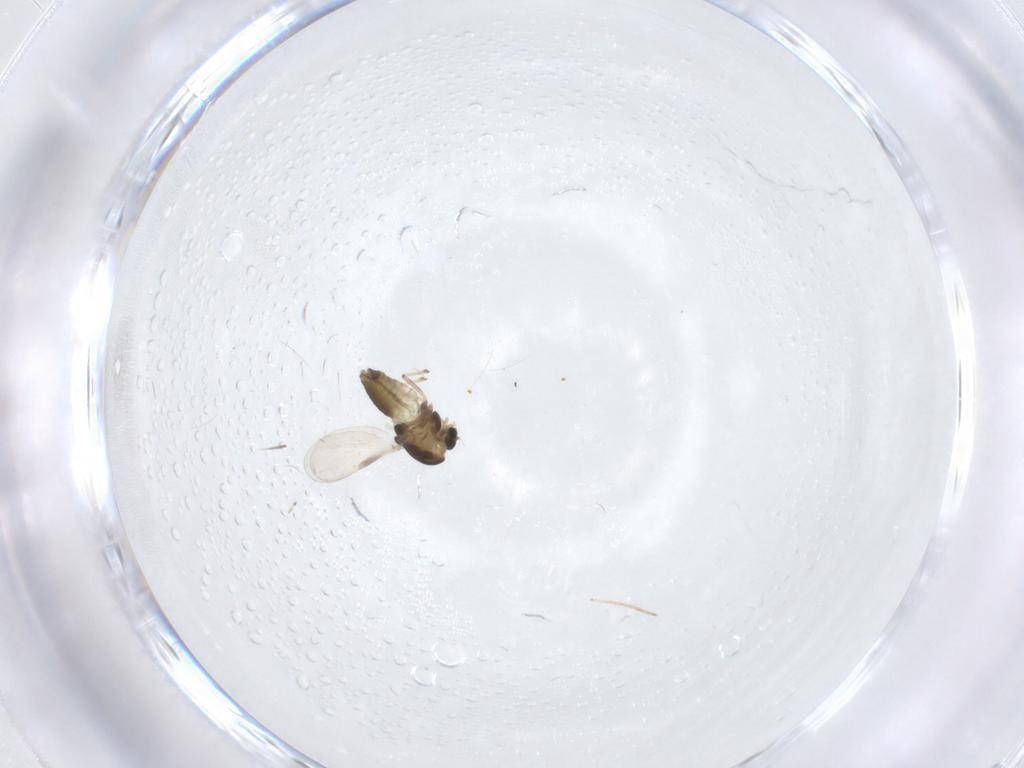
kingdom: Animalia
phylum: Arthropoda
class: Insecta
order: Diptera
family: Chironomidae
